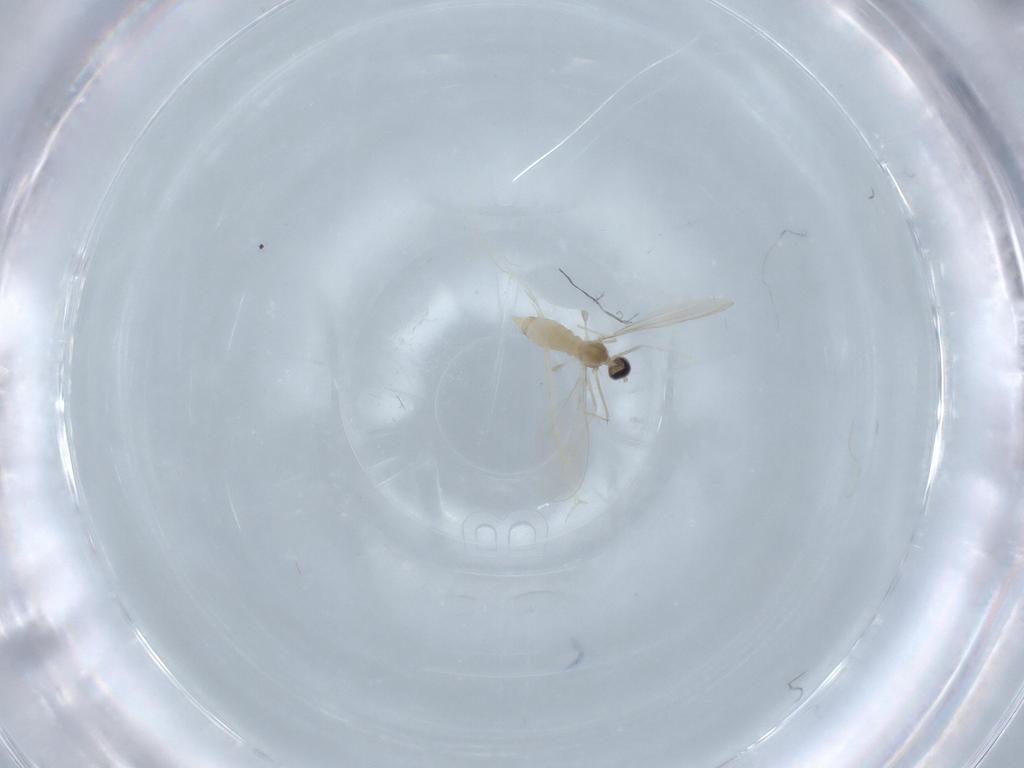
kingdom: Animalia
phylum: Arthropoda
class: Insecta
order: Diptera
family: Cecidomyiidae
